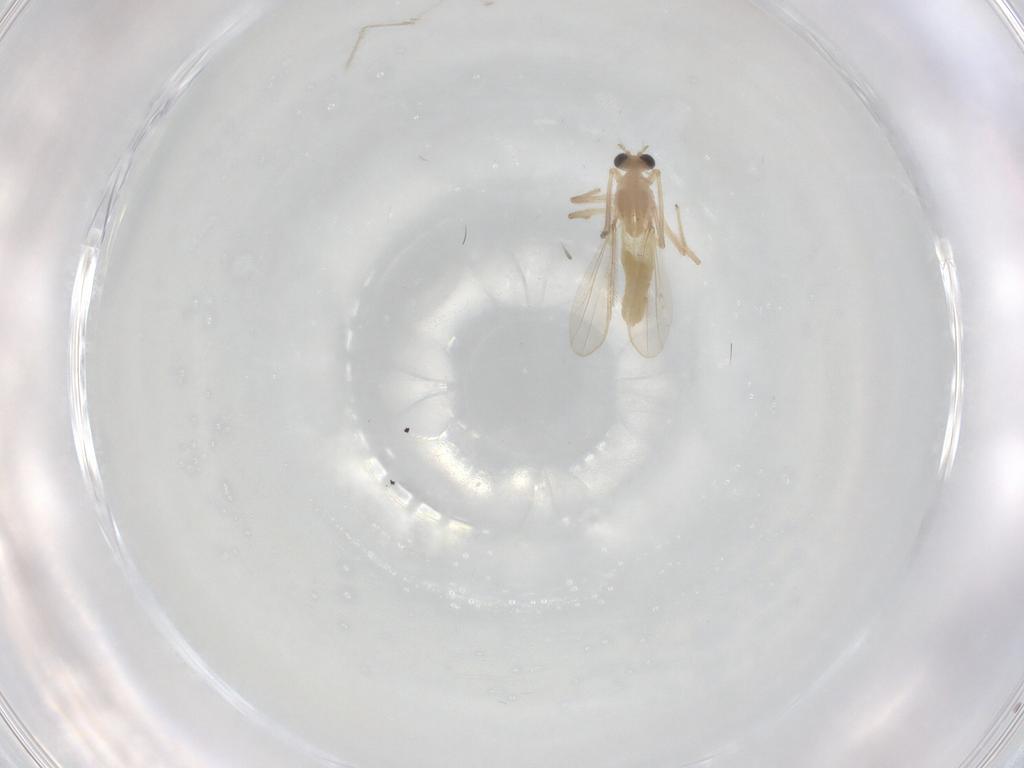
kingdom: Animalia
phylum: Arthropoda
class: Insecta
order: Diptera
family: Chironomidae
